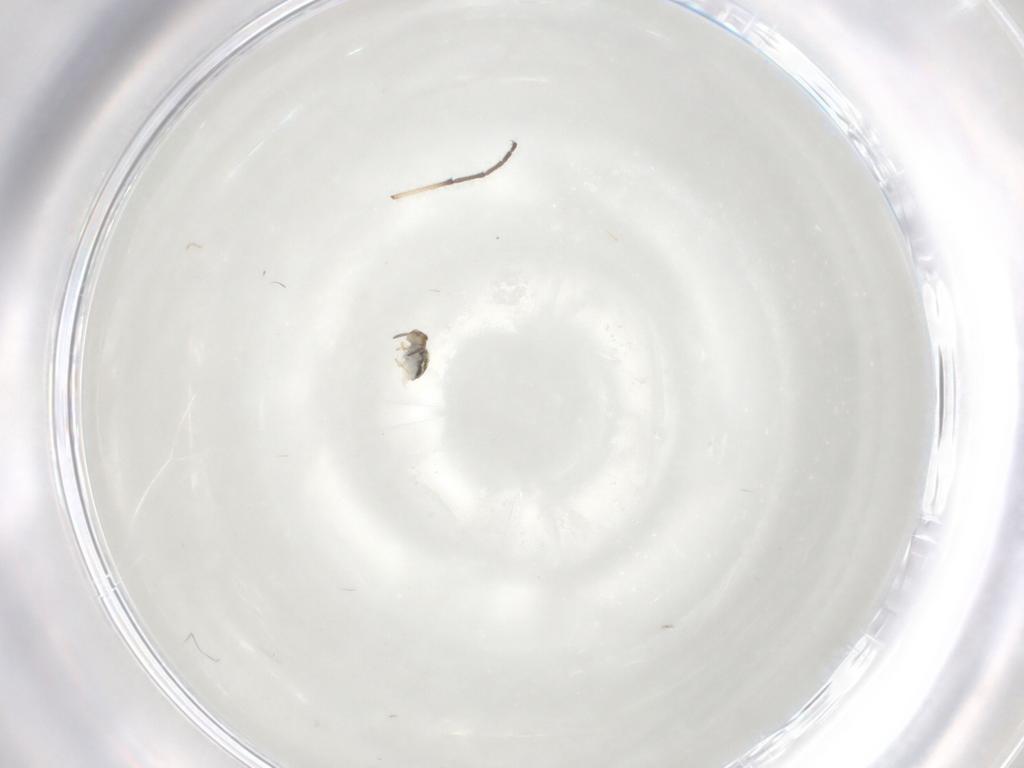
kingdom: Animalia
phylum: Arthropoda
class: Collembola
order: Symphypleona
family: Katiannidae
